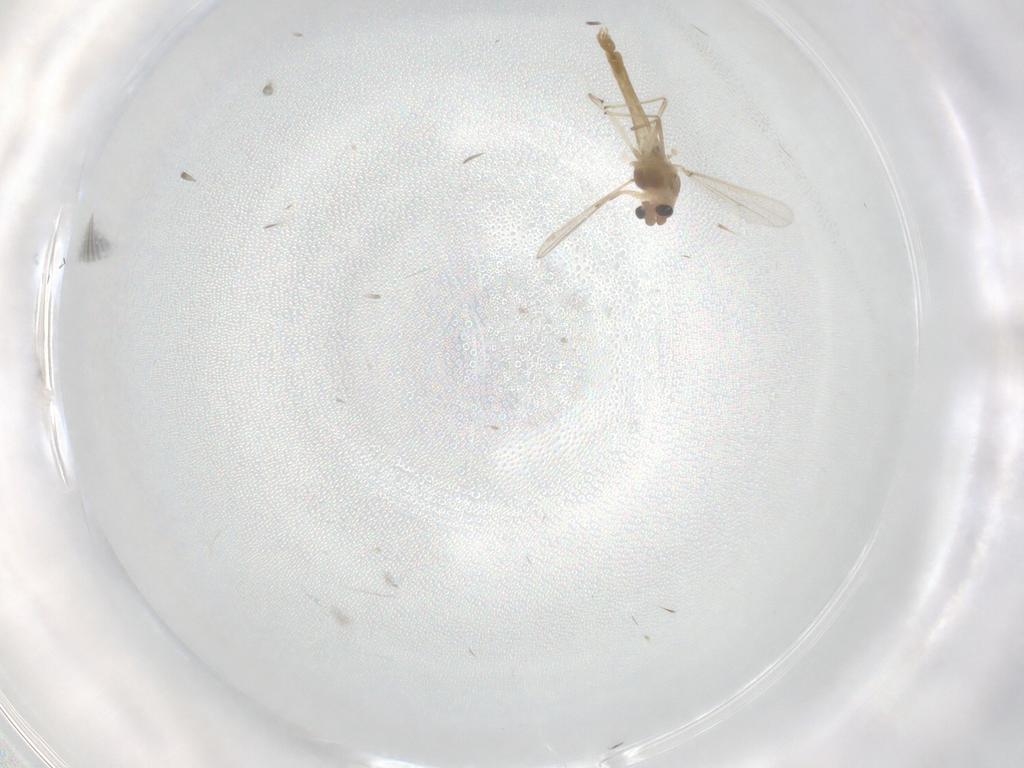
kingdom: Animalia
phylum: Arthropoda
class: Insecta
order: Diptera
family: Chironomidae
